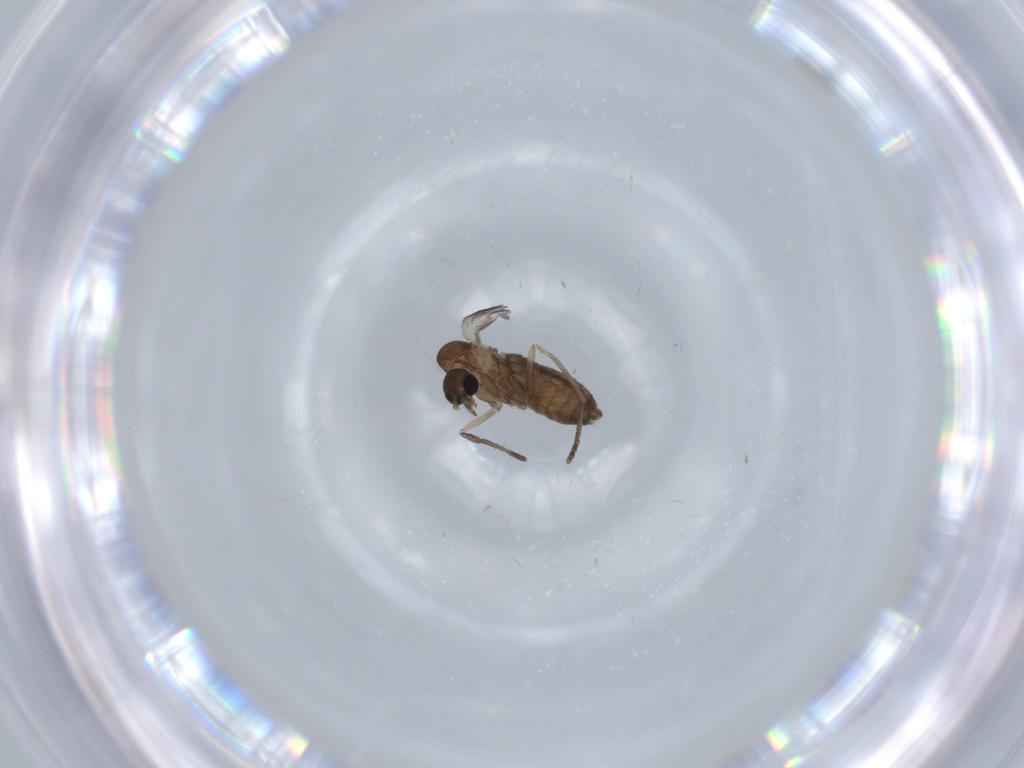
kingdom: Animalia
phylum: Arthropoda
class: Insecta
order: Diptera
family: Psychodidae
